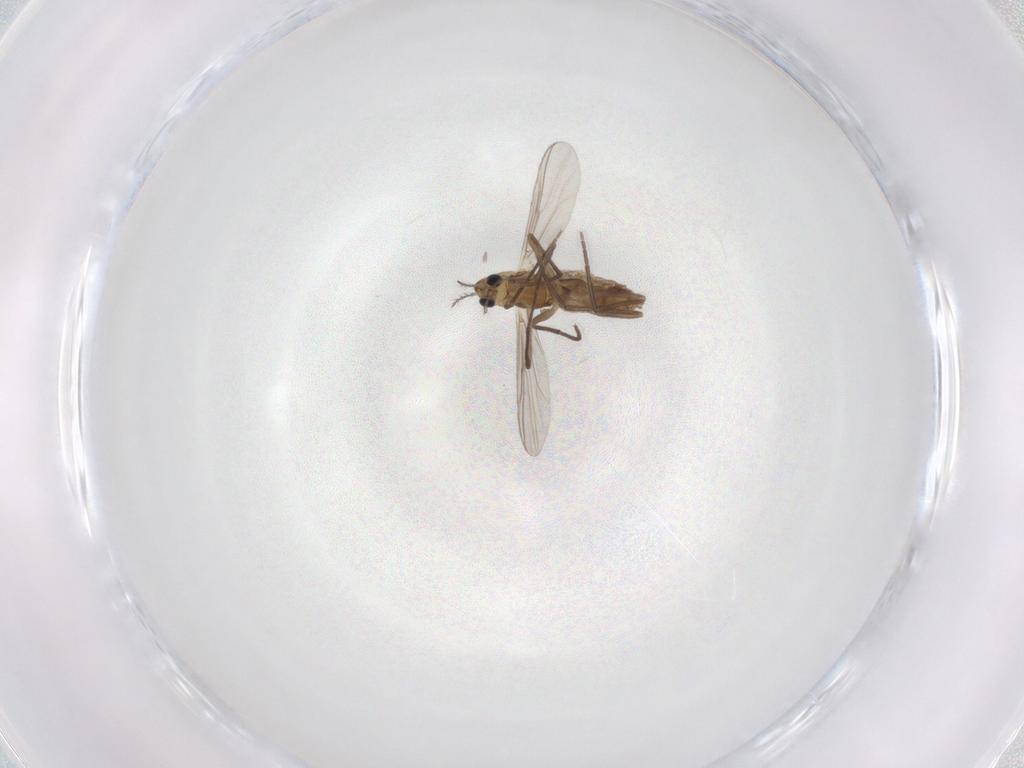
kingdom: Animalia
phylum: Arthropoda
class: Insecta
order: Diptera
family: Chironomidae
